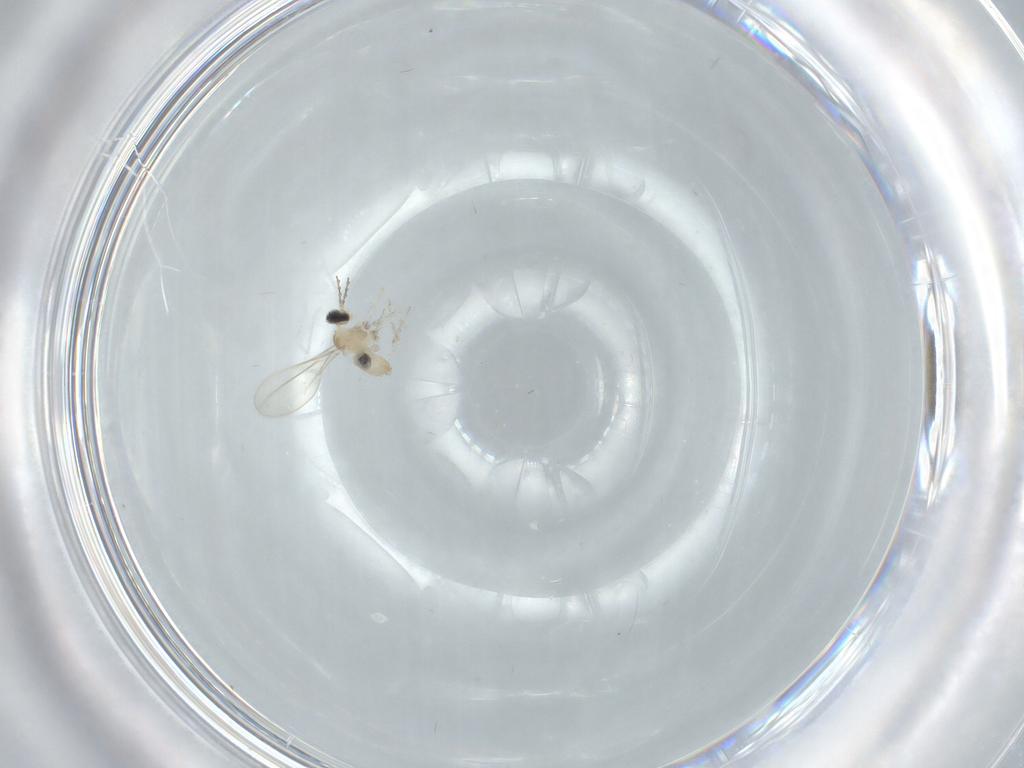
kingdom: Animalia
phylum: Arthropoda
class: Insecta
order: Diptera
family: Cecidomyiidae
